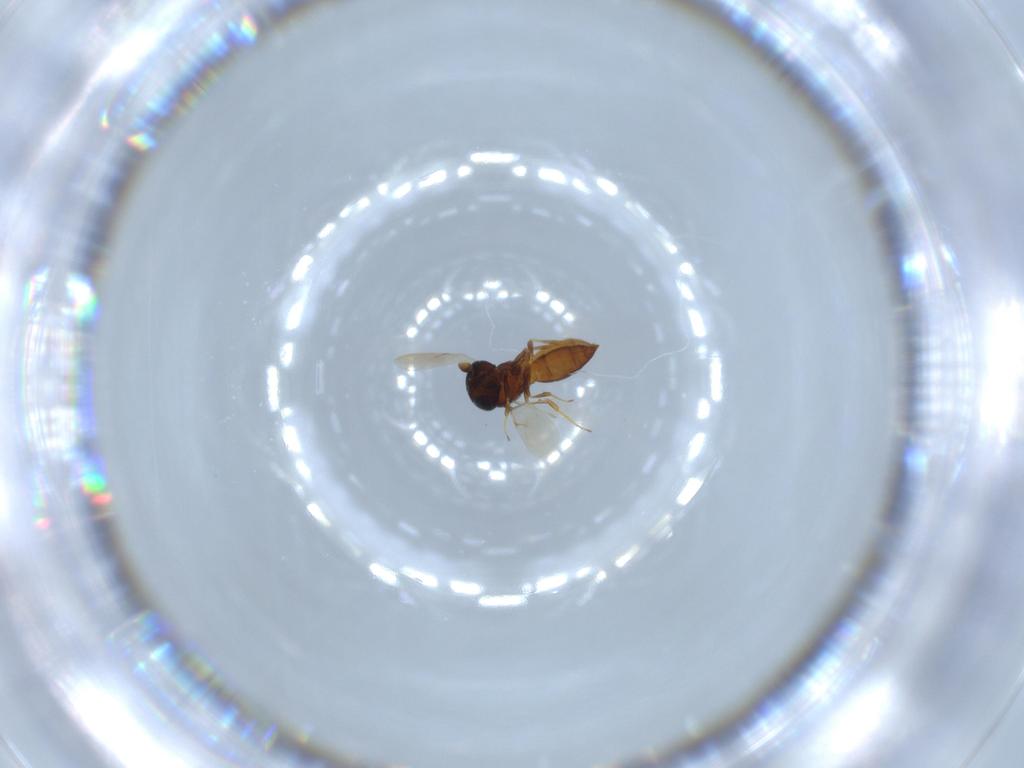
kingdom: Animalia
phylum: Arthropoda
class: Insecta
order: Hymenoptera
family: Scelionidae
